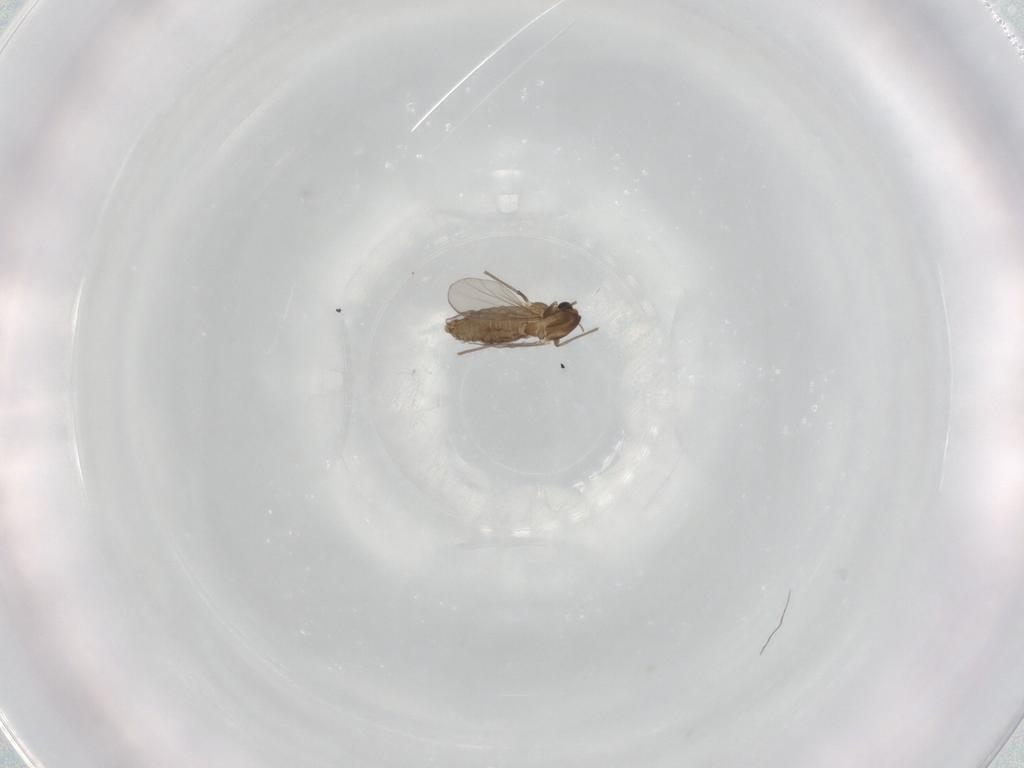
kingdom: Animalia
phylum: Arthropoda
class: Insecta
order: Diptera
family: Chironomidae
